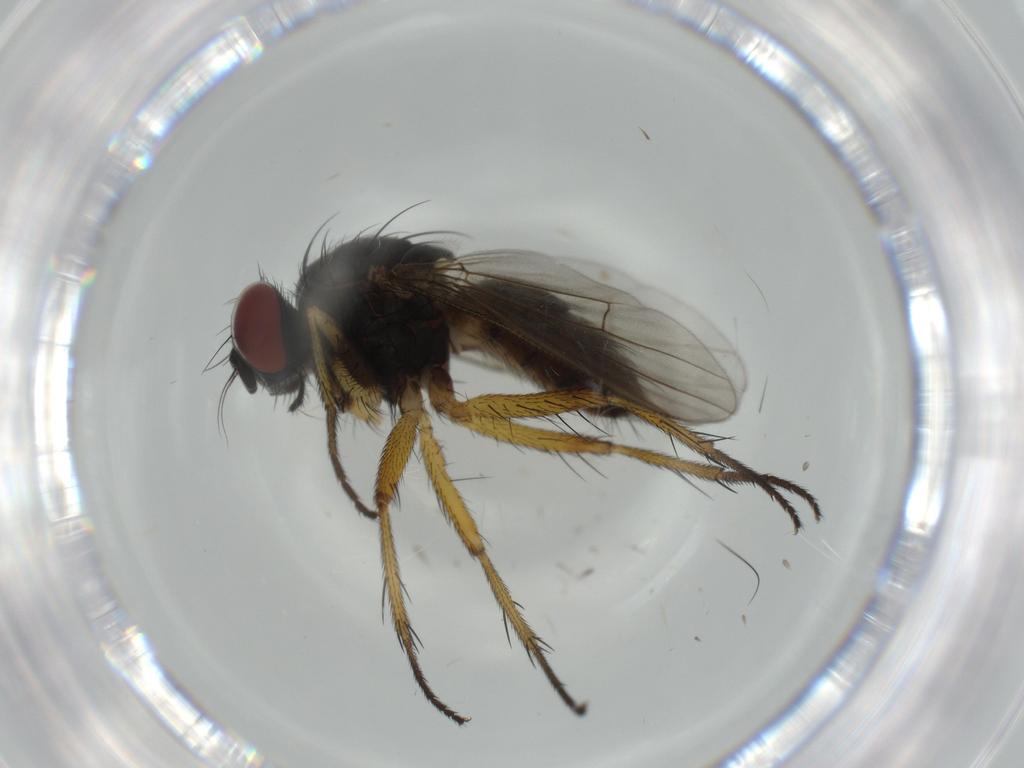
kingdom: Animalia
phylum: Arthropoda
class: Insecta
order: Diptera
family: Muscidae
